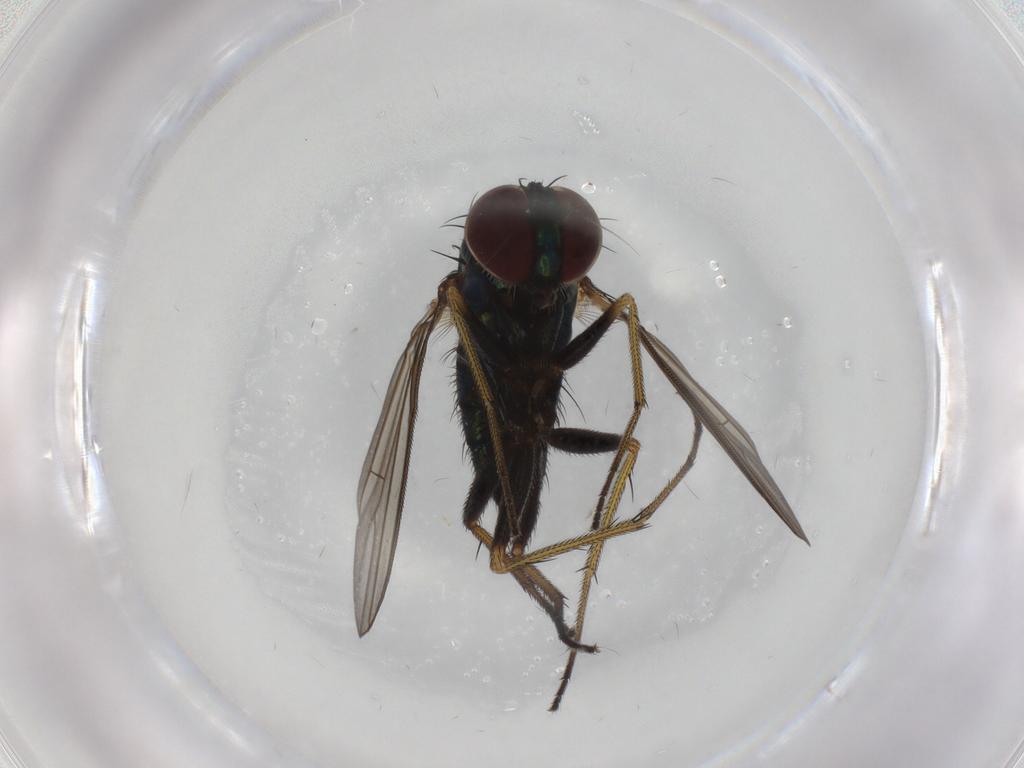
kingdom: Animalia
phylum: Arthropoda
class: Insecta
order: Diptera
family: Dolichopodidae
